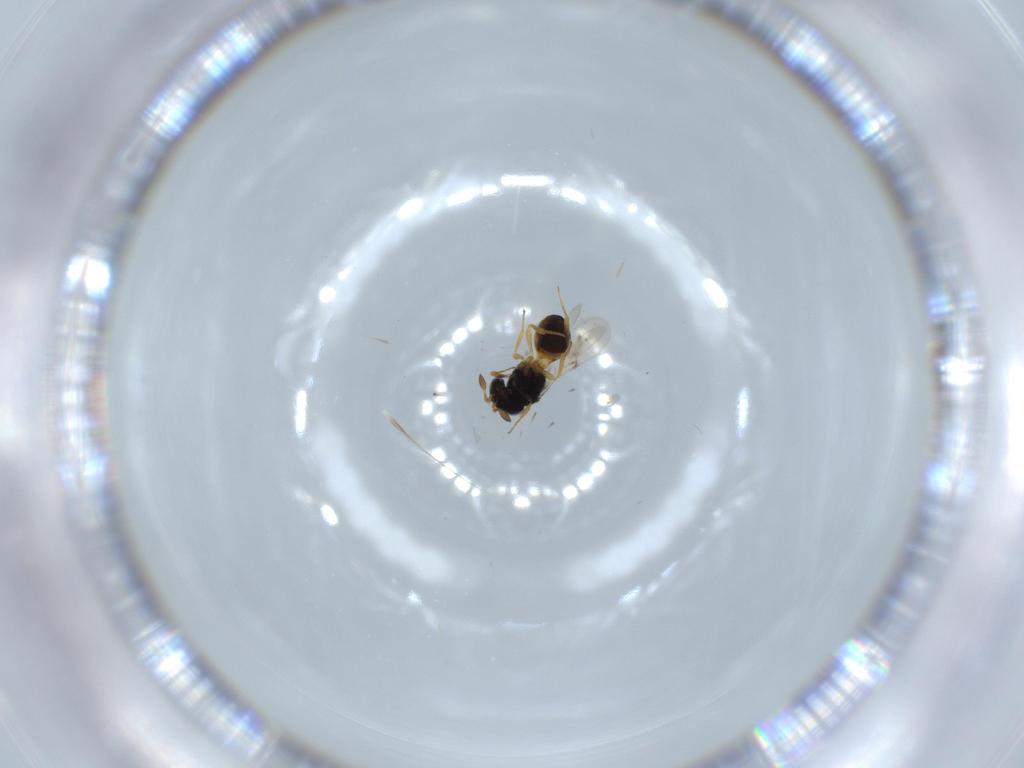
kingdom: Animalia
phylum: Arthropoda
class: Insecta
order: Hymenoptera
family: Scelionidae
